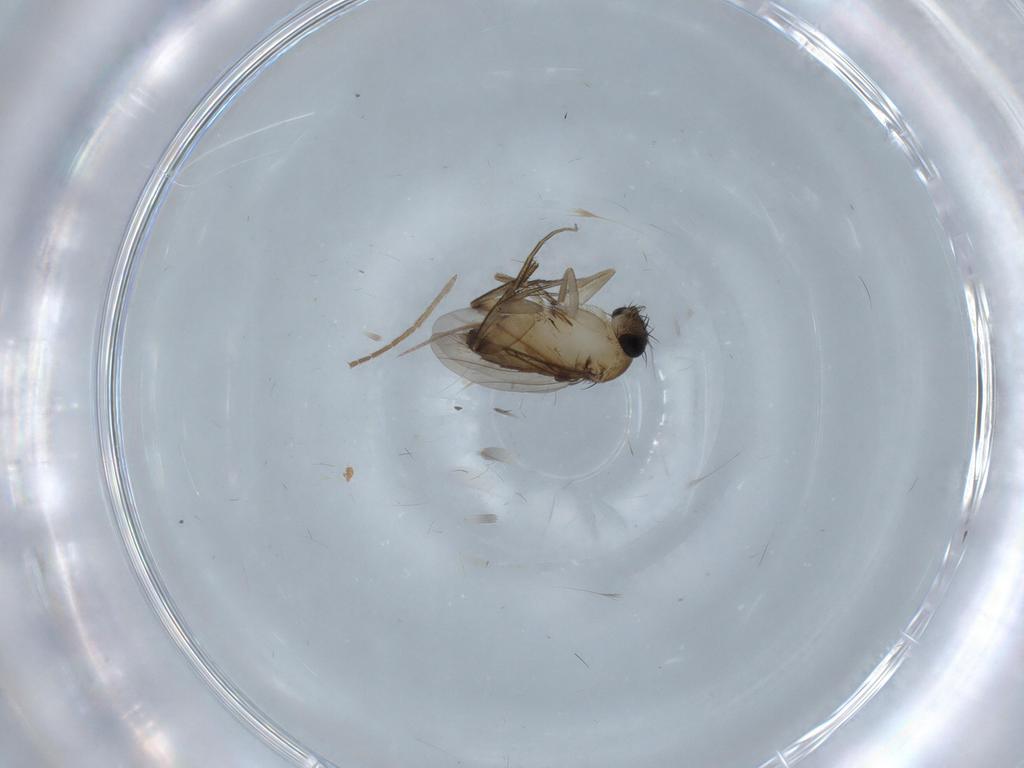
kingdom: Animalia
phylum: Arthropoda
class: Insecta
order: Diptera
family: Phoridae
